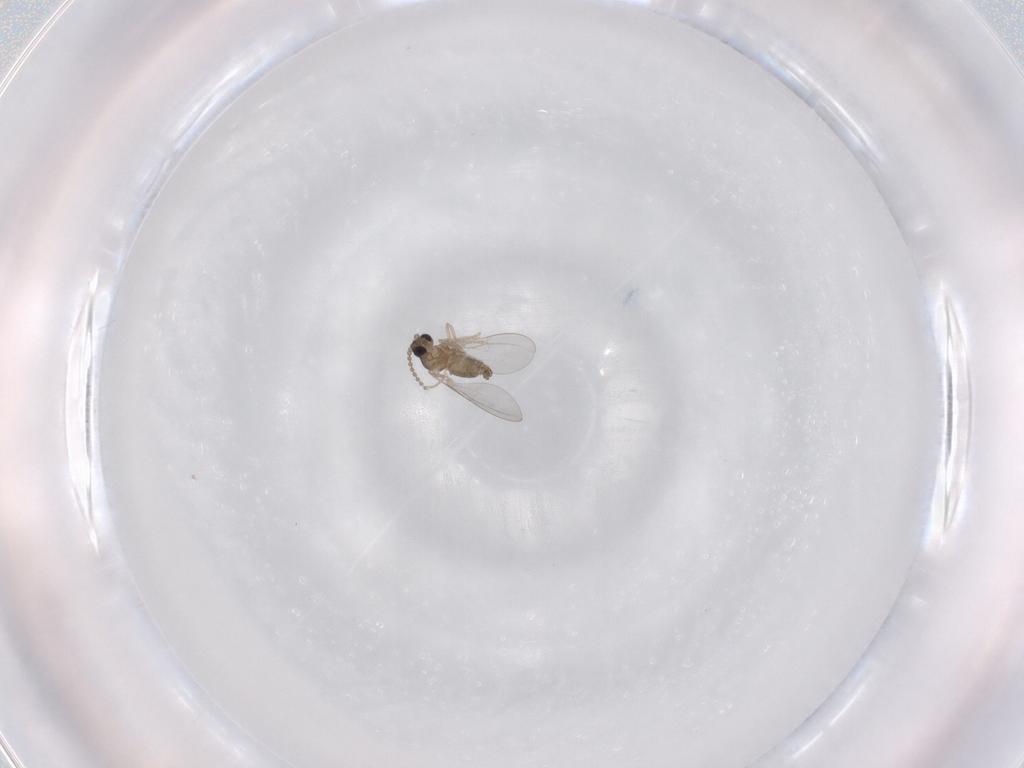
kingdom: Animalia
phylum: Arthropoda
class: Insecta
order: Diptera
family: Cecidomyiidae
